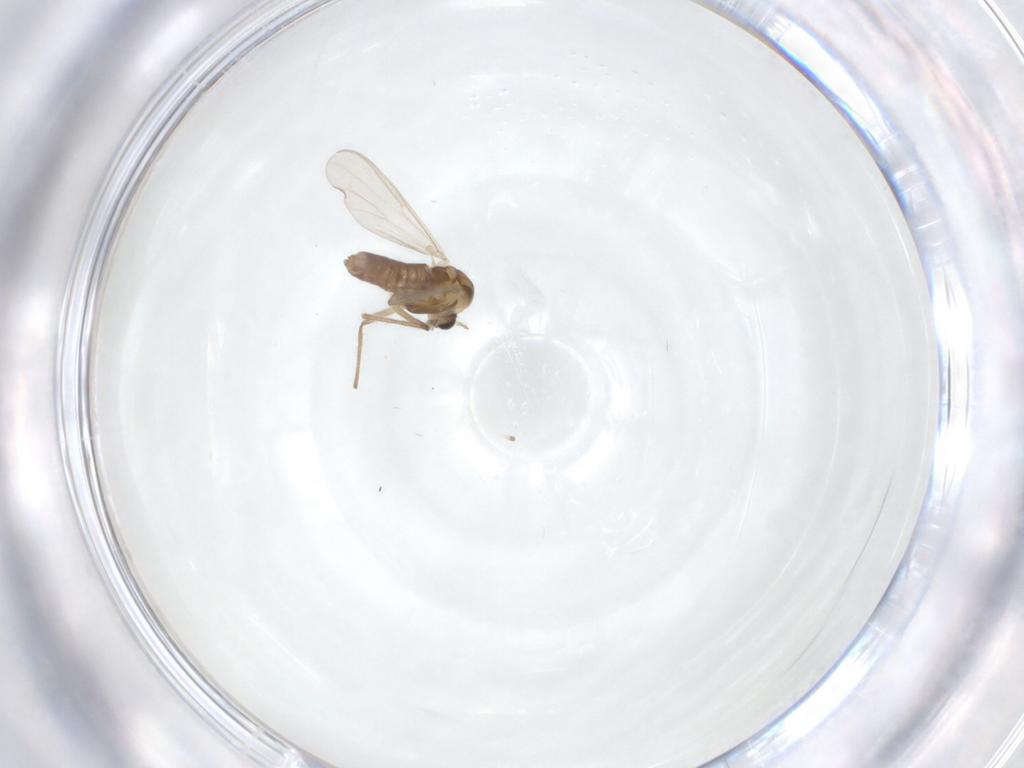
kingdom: Animalia
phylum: Arthropoda
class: Insecta
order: Diptera
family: Chironomidae
